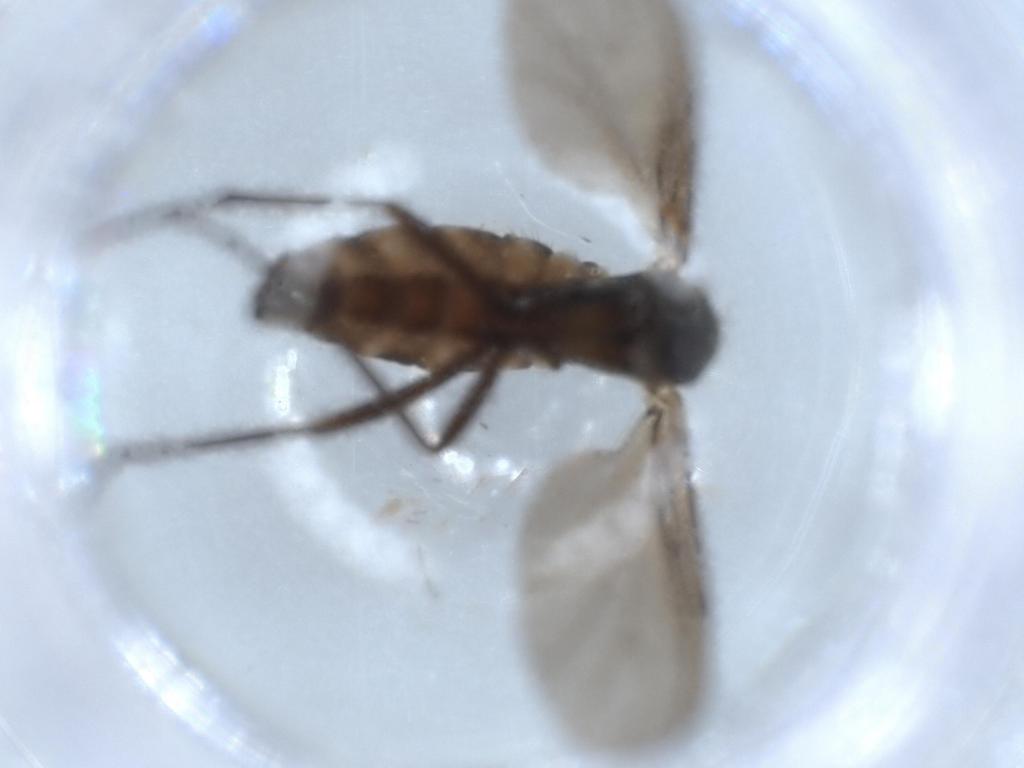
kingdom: Animalia
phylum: Arthropoda
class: Insecta
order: Diptera
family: Sciaridae
